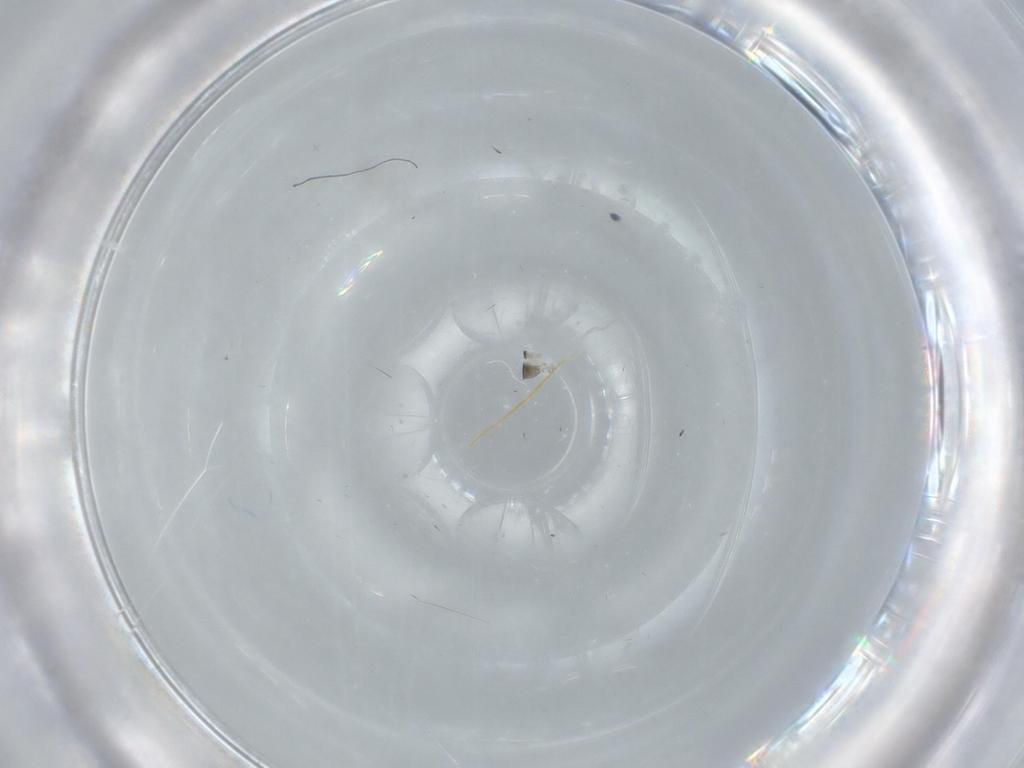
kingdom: Animalia
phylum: Arthropoda
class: Insecta
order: Diptera
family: Sciaridae
